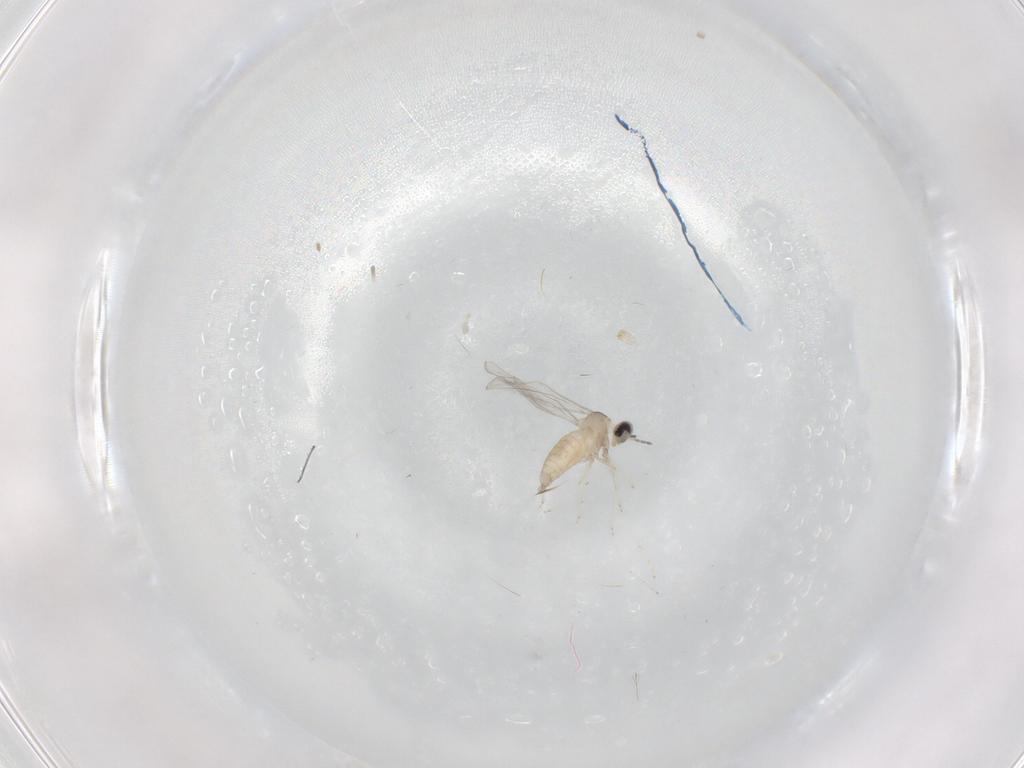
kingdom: Animalia
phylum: Arthropoda
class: Insecta
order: Diptera
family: Cecidomyiidae
